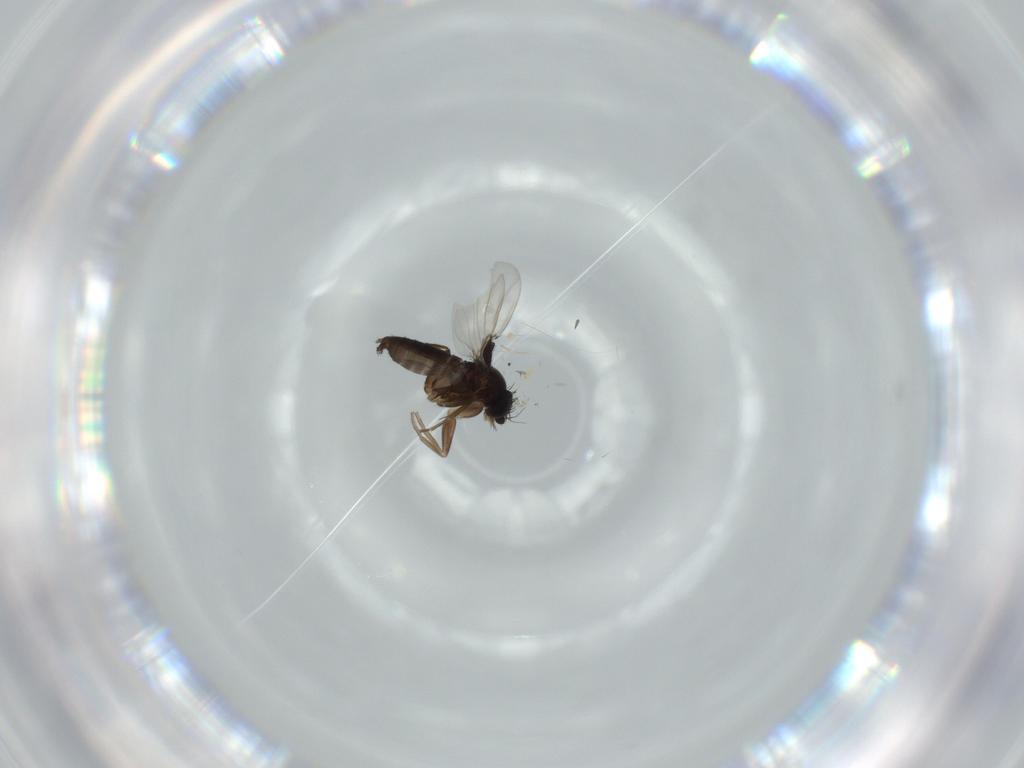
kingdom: Animalia
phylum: Arthropoda
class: Insecta
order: Diptera
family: Phoridae
